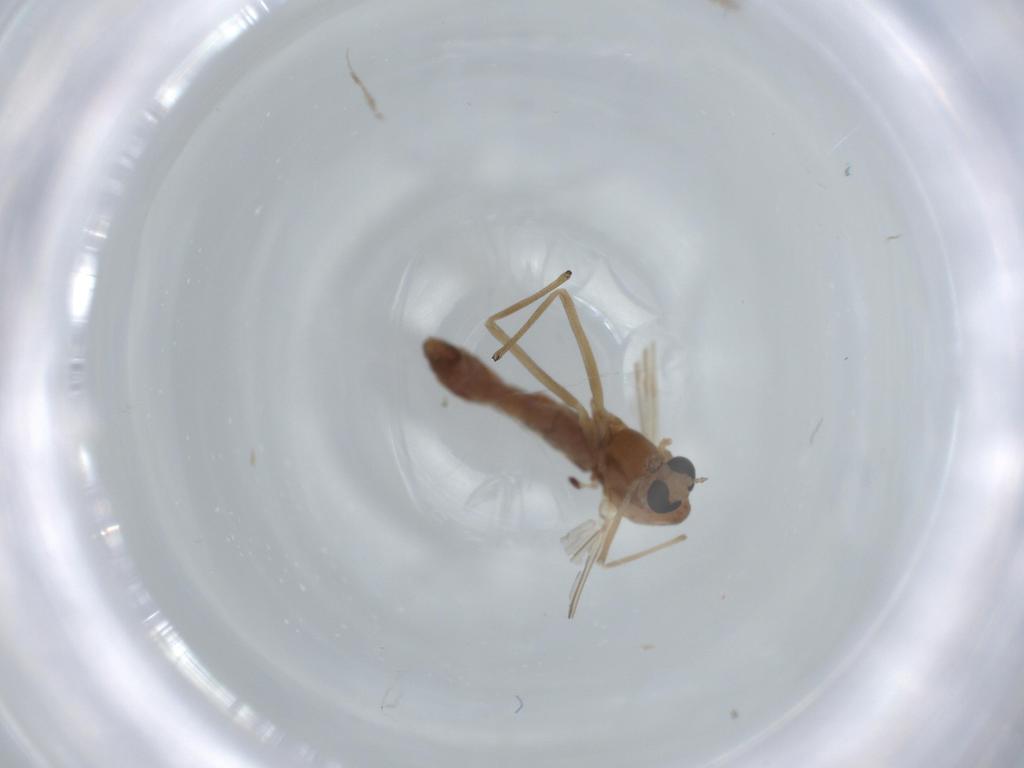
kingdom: Animalia
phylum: Arthropoda
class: Insecta
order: Diptera
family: Chironomidae
